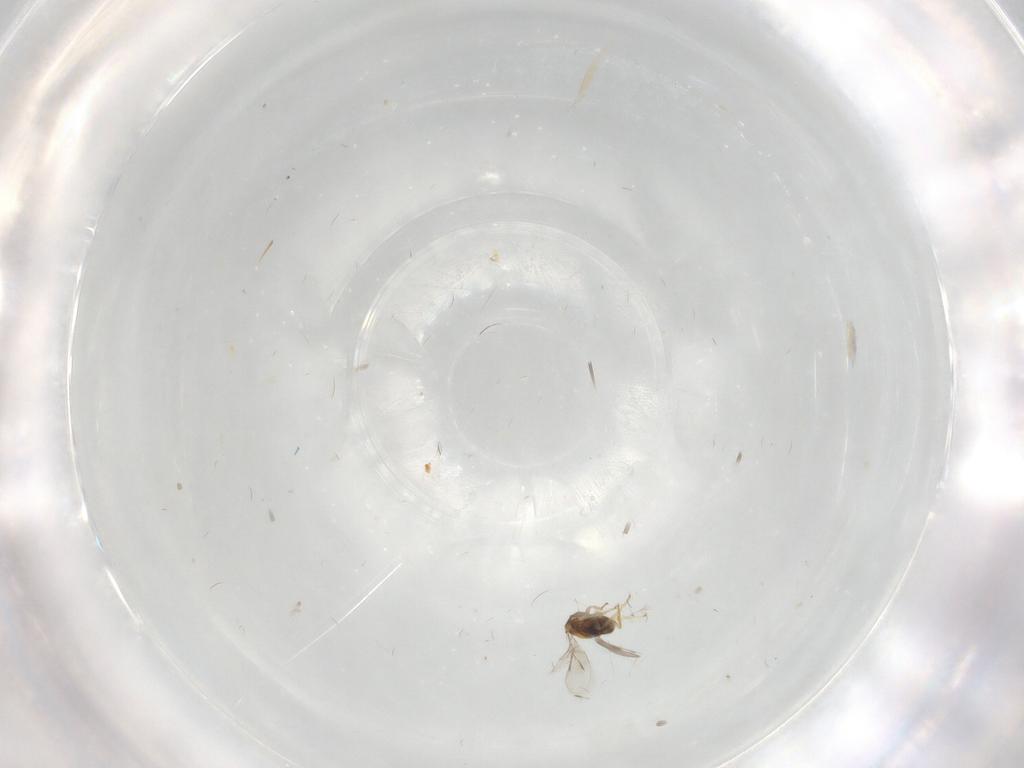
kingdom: Animalia
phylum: Arthropoda
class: Insecta
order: Hymenoptera
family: Aphelinidae
